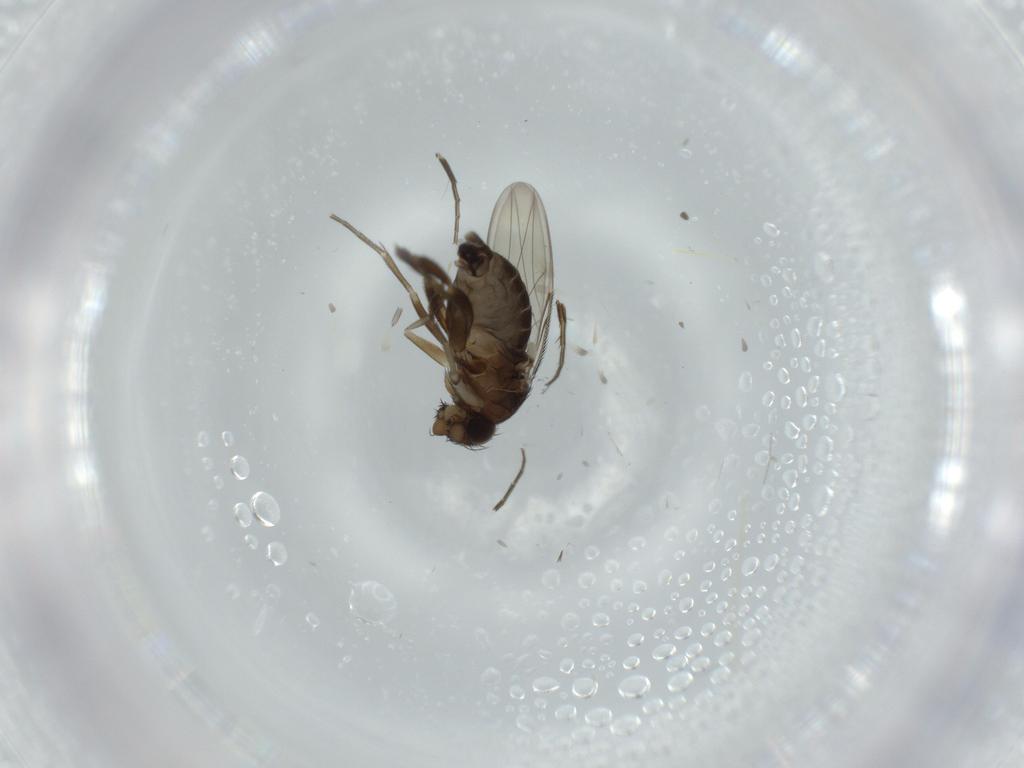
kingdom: Animalia
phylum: Arthropoda
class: Insecta
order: Diptera
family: Phoridae
